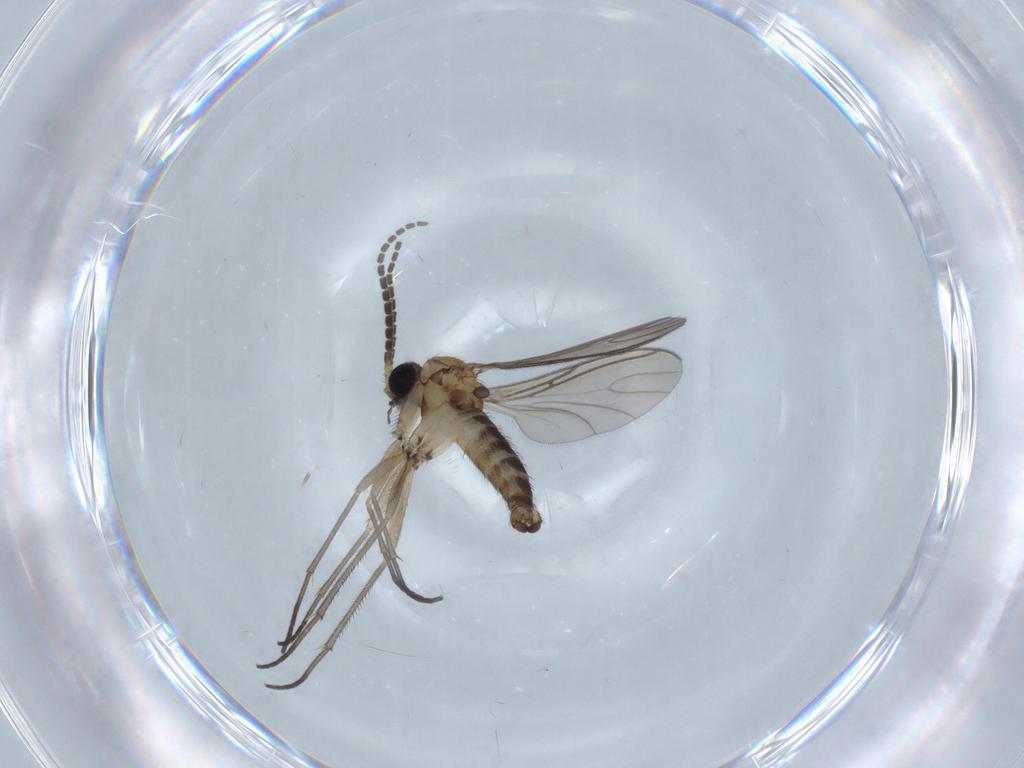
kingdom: Animalia
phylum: Arthropoda
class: Insecta
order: Diptera
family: Sciaridae
